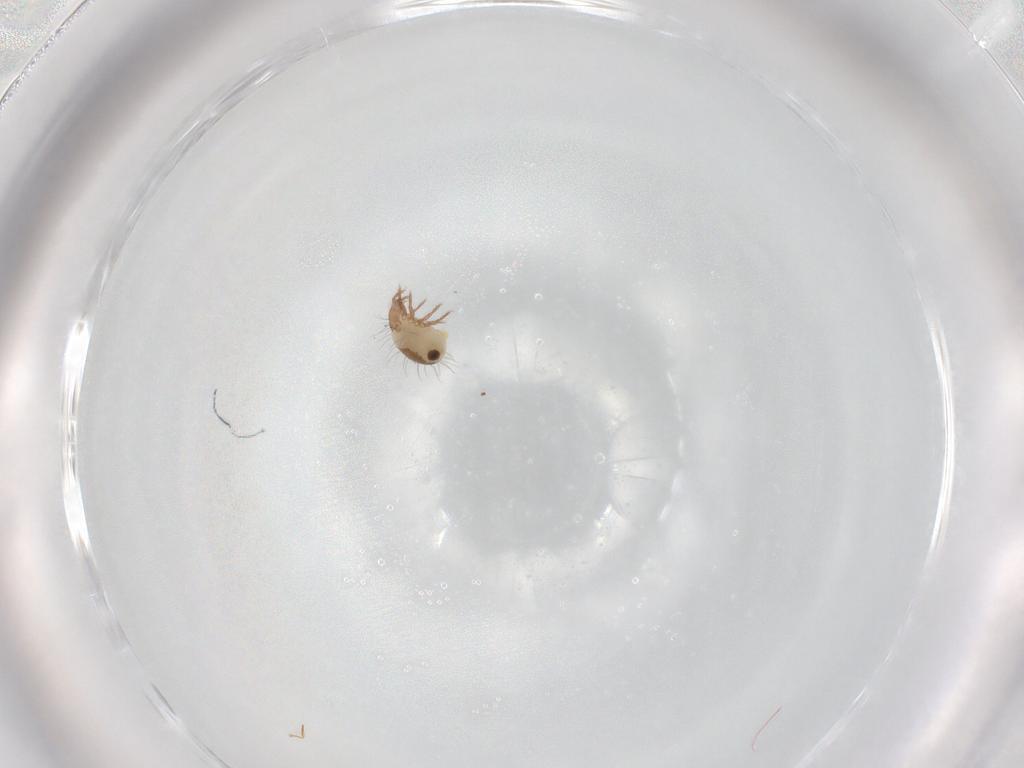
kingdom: Animalia
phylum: Arthropoda
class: Arachnida
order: Sarcoptiformes
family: Humerobatidae
